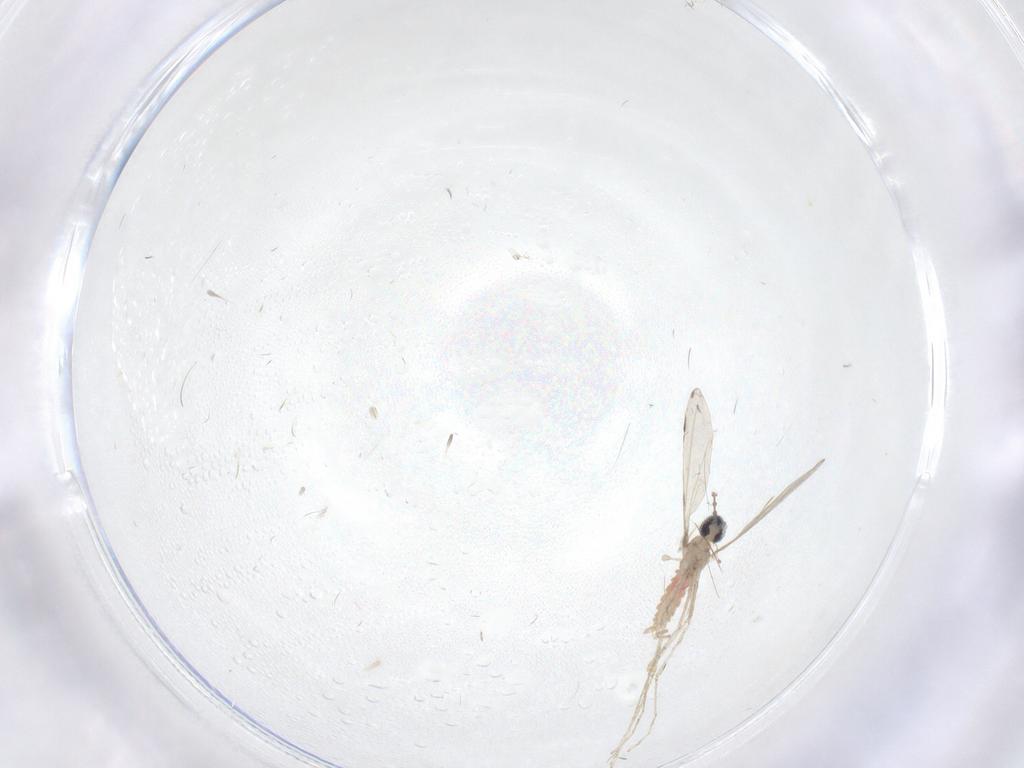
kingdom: Animalia
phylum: Arthropoda
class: Insecta
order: Diptera
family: Cecidomyiidae
